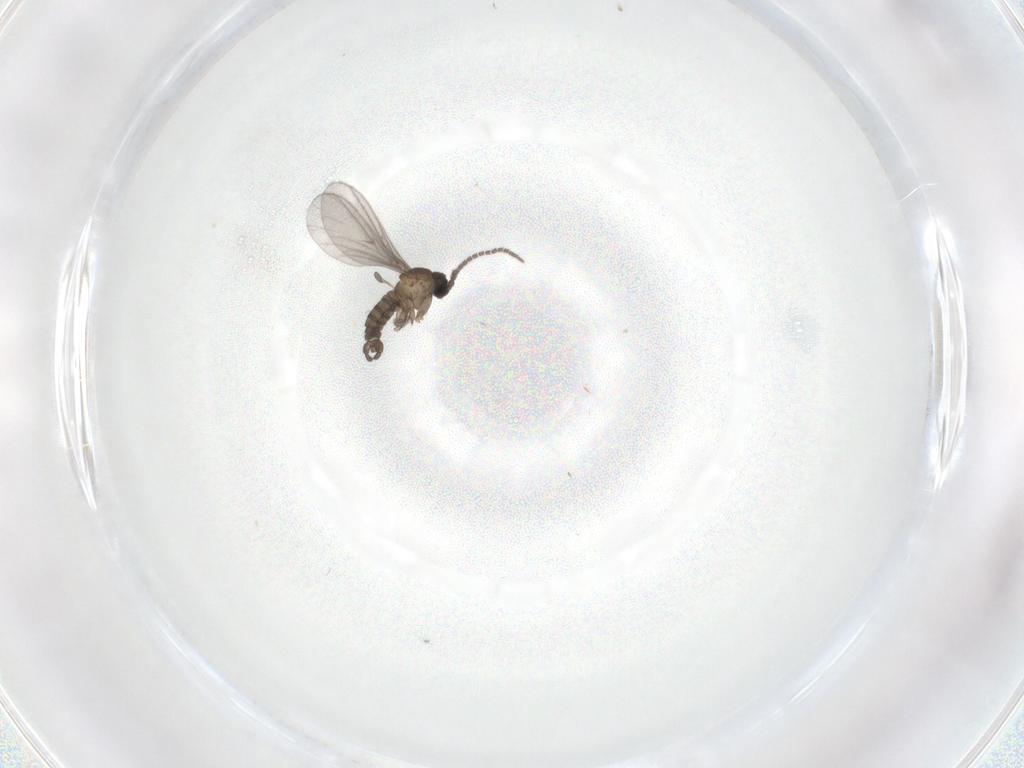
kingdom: Animalia
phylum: Arthropoda
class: Insecta
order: Diptera
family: Sciaridae
